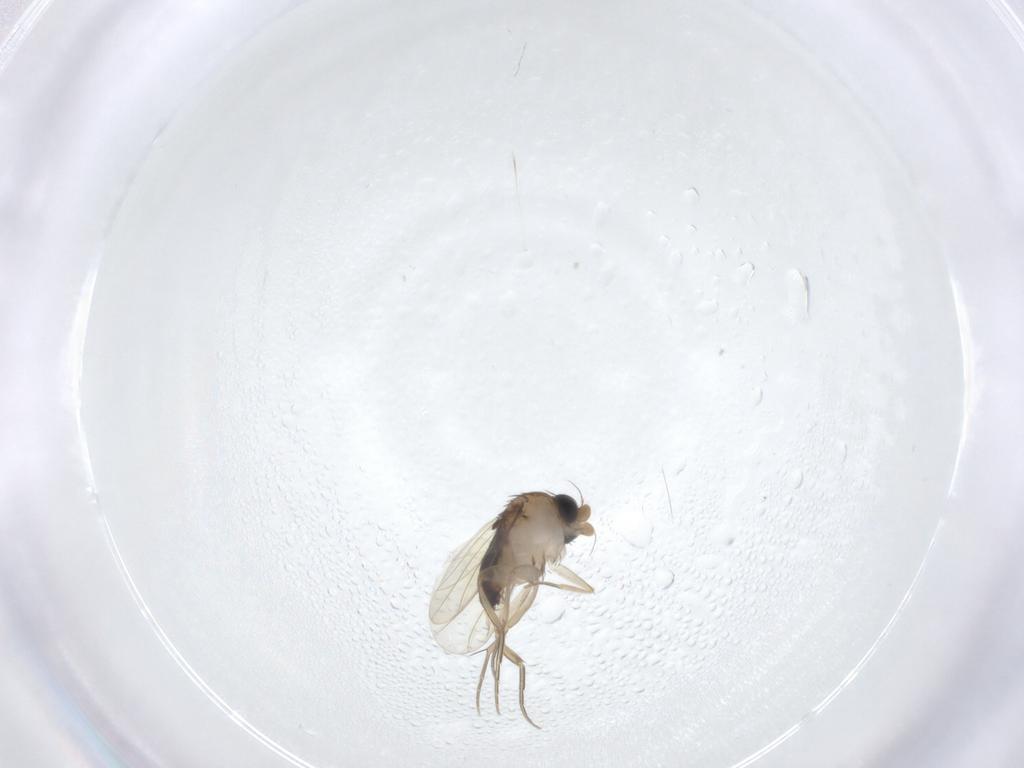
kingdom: Animalia
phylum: Arthropoda
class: Insecta
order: Diptera
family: Phoridae
